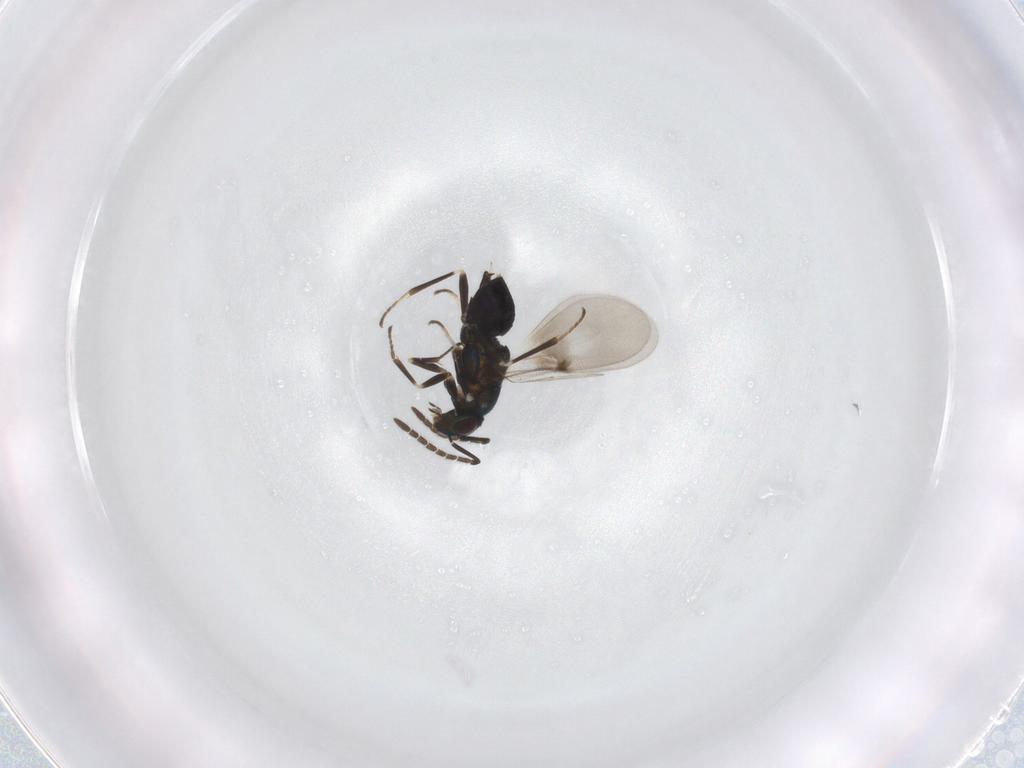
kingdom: Animalia
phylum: Arthropoda
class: Insecta
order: Hymenoptera
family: Encyrtidae
